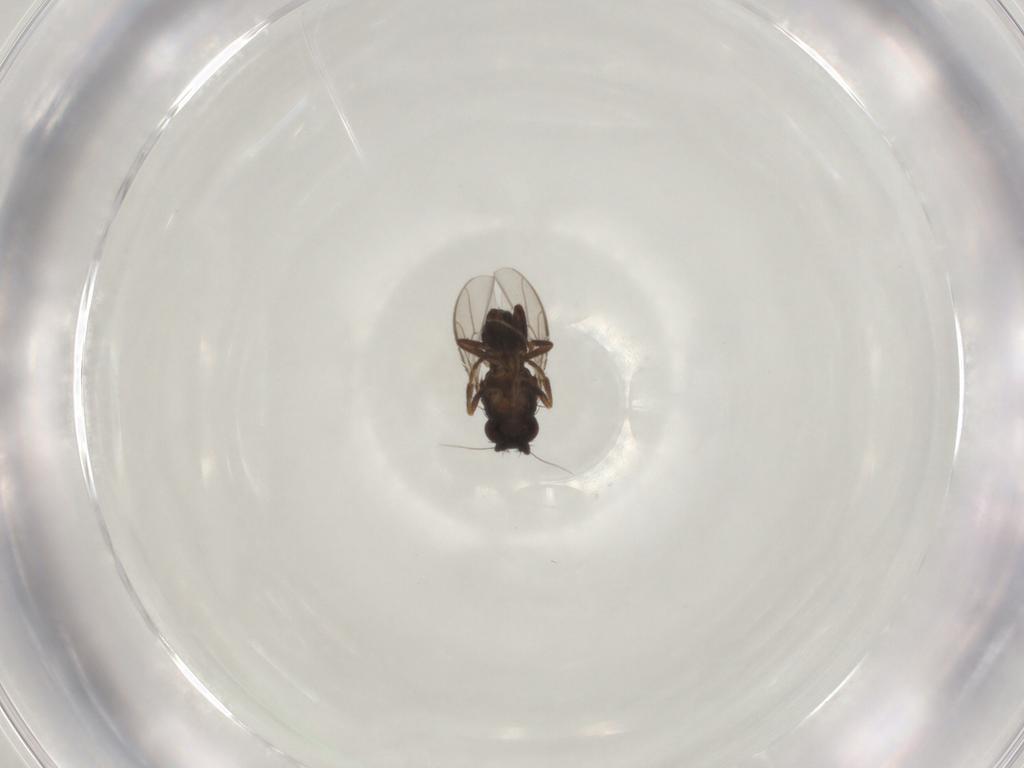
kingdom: Animalia
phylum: Arthropoda
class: Insecta
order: Diptera
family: Sphaeroceridae
